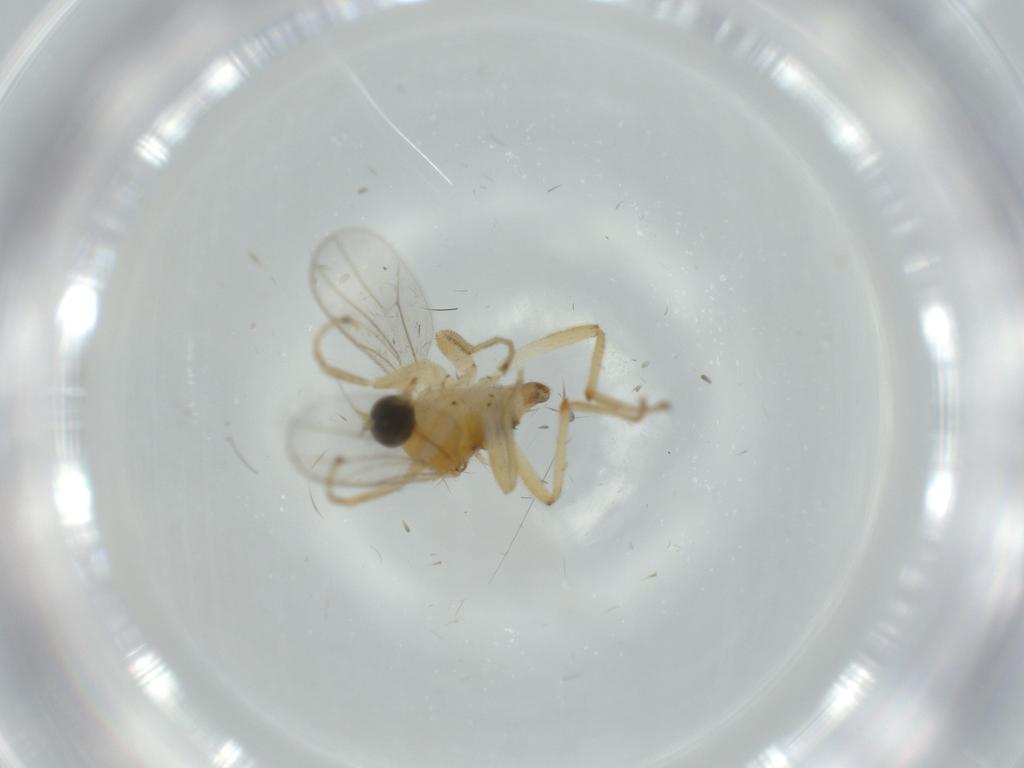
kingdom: Animalia
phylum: Arthropoda
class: Insecta
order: Diptera
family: Hybotidae
